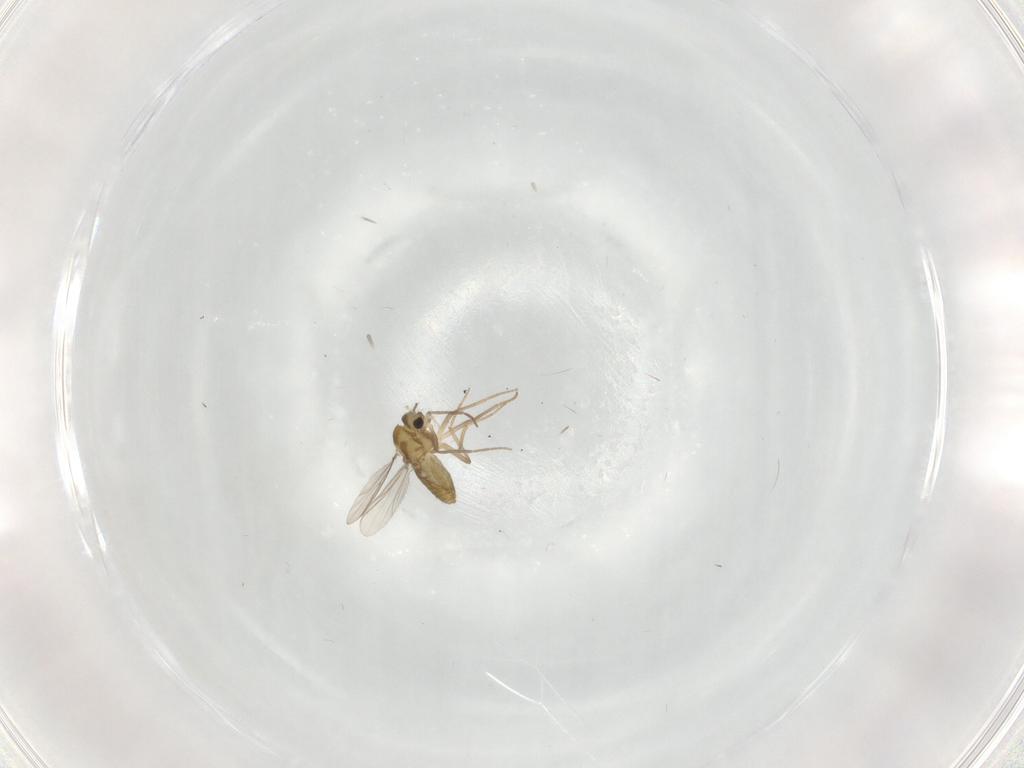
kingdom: Animalia
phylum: Arthropoda
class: Insecta
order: Diptera
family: Chironomidae
